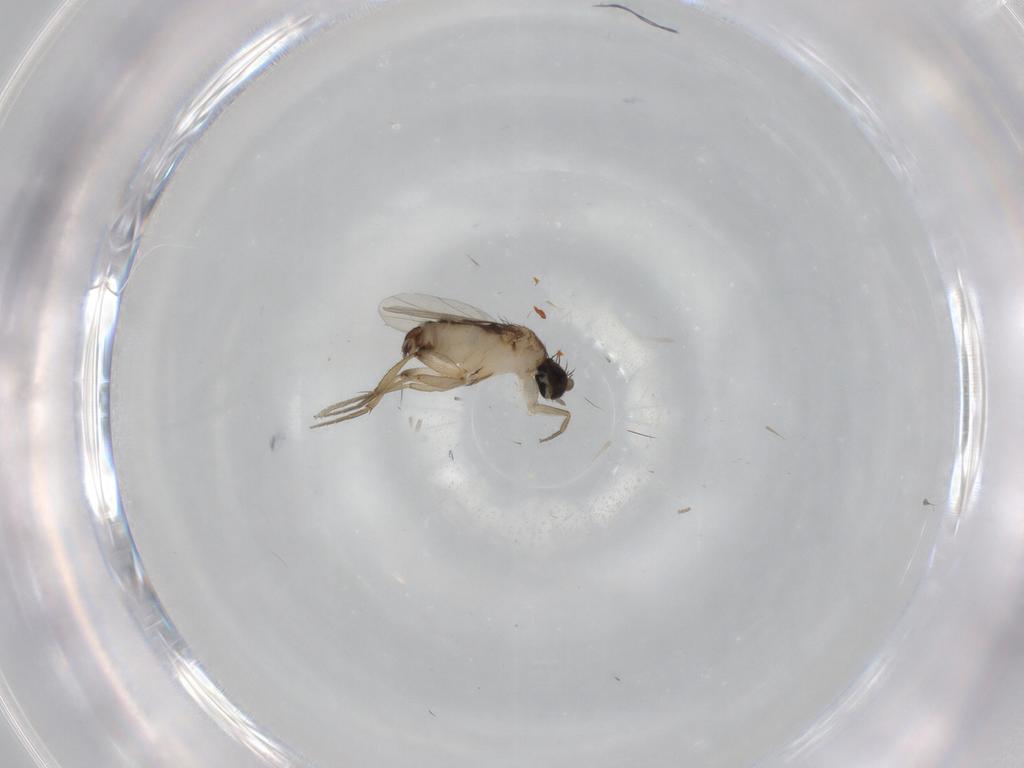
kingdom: Animalia
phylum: Arthropoda
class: Insecta
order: Diptera
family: Phoridae
